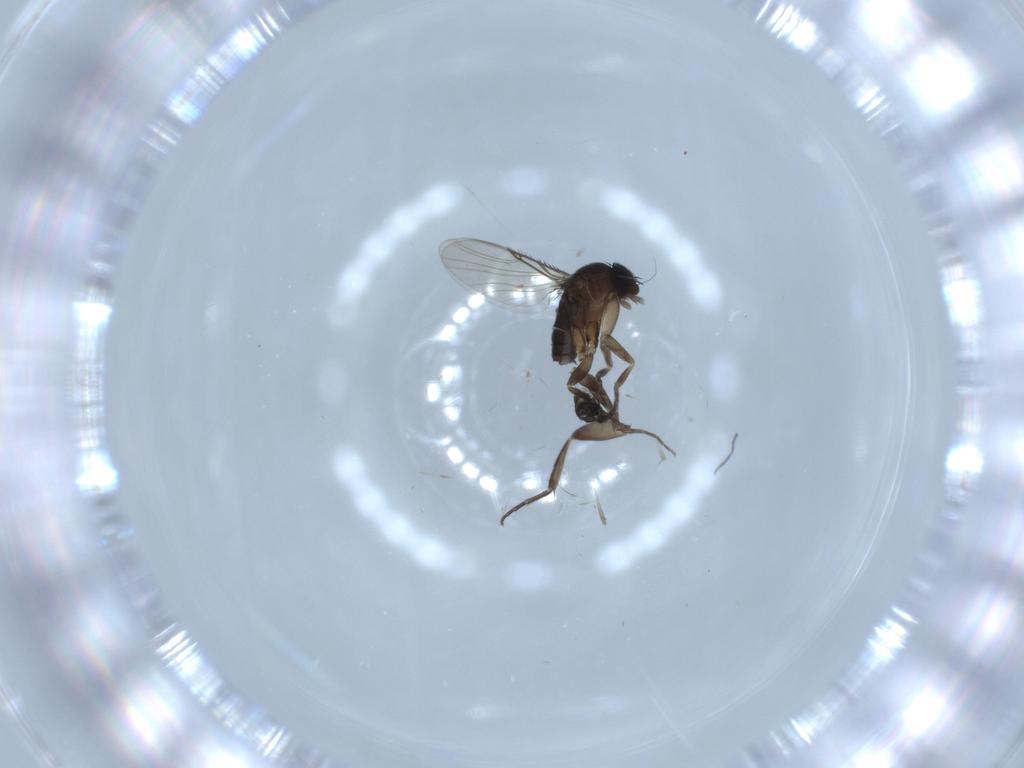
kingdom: Animalia
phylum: Arthropoda
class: Insecta
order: Diptera
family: Phoridae
